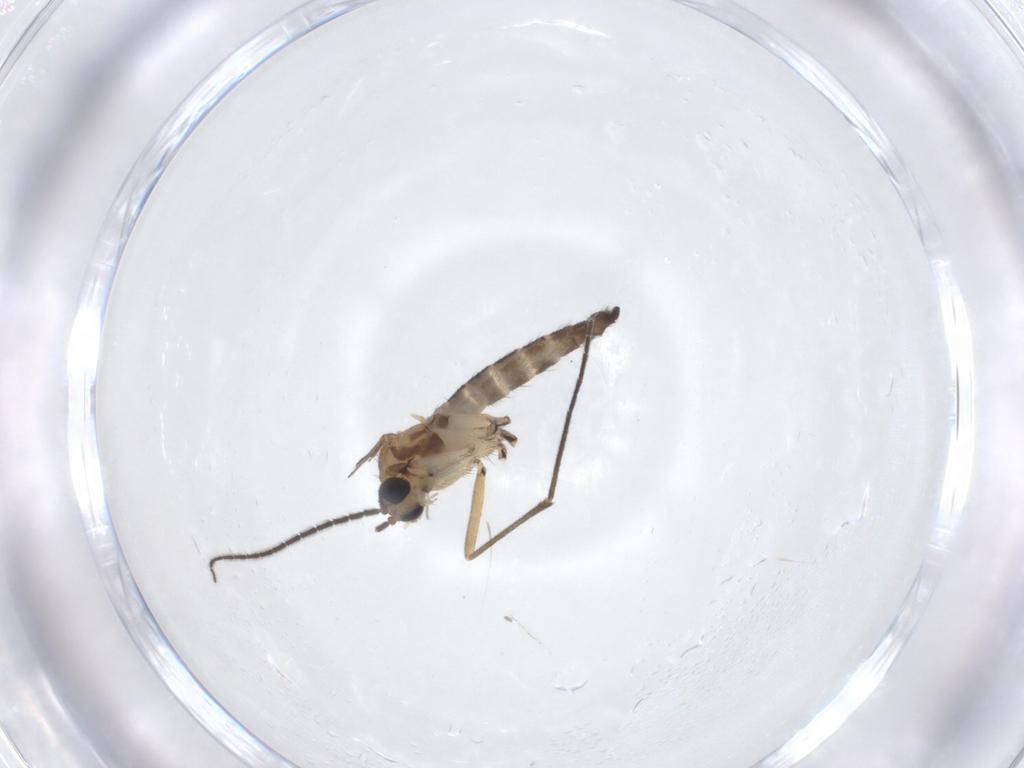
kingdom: Animalia
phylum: Arthropoda
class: Insecta
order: Diptera
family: Sciaridae
